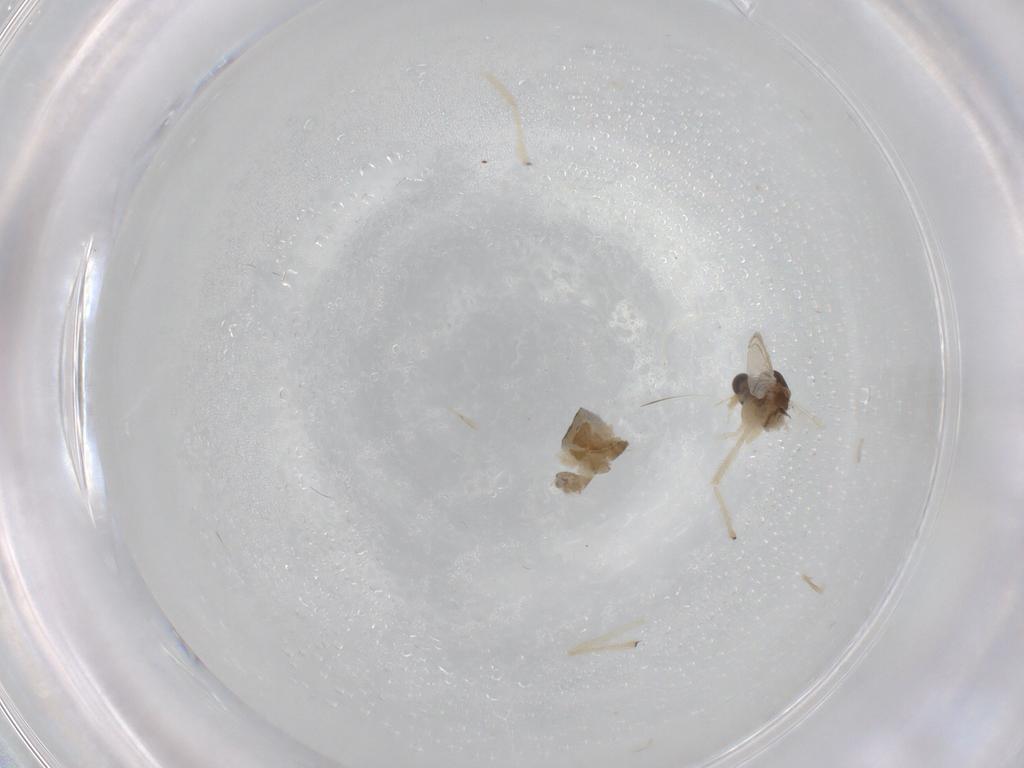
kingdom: Animalia
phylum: Arthropoda
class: Insecta
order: Diptera
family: Chironomidae
